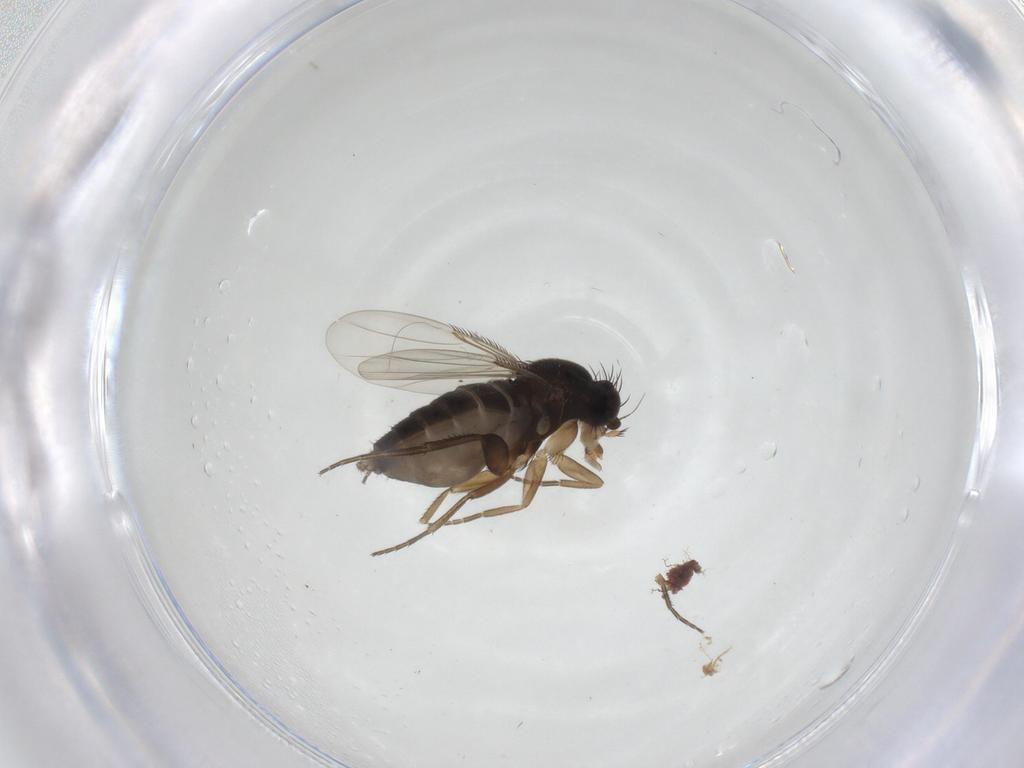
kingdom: Animalia
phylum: Arthropoda
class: Insecta
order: Diptera
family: Phoridae
